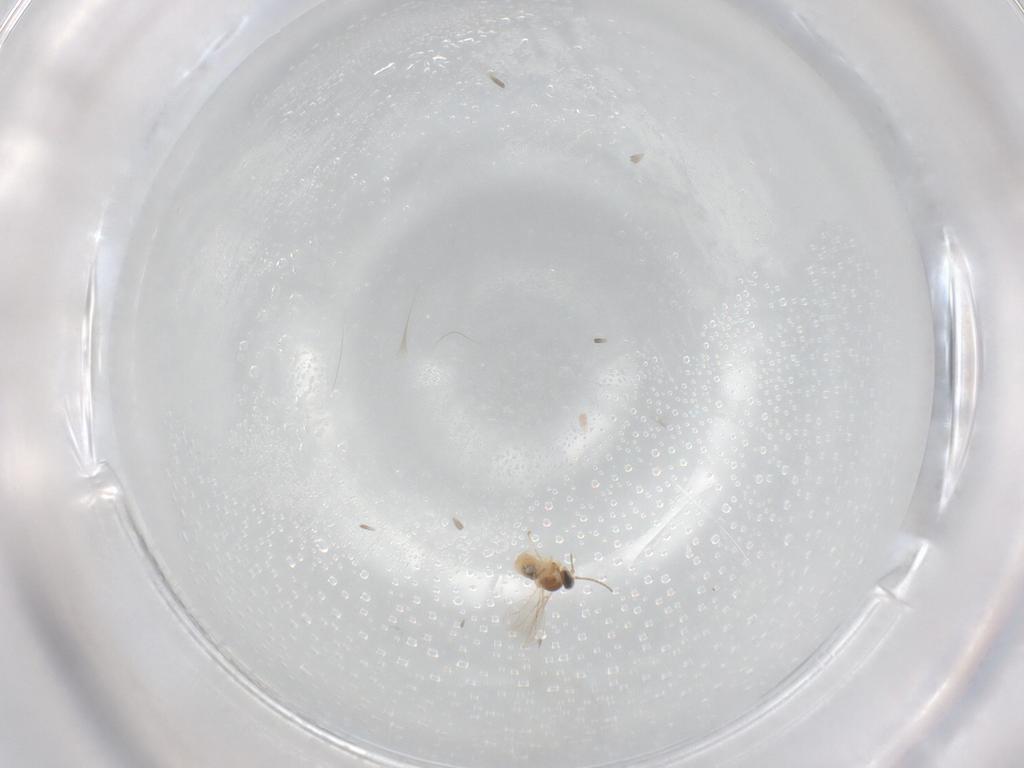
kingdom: Animalia
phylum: Arthropoda
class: Insecta
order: Diptera
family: Cecidomyiidae
